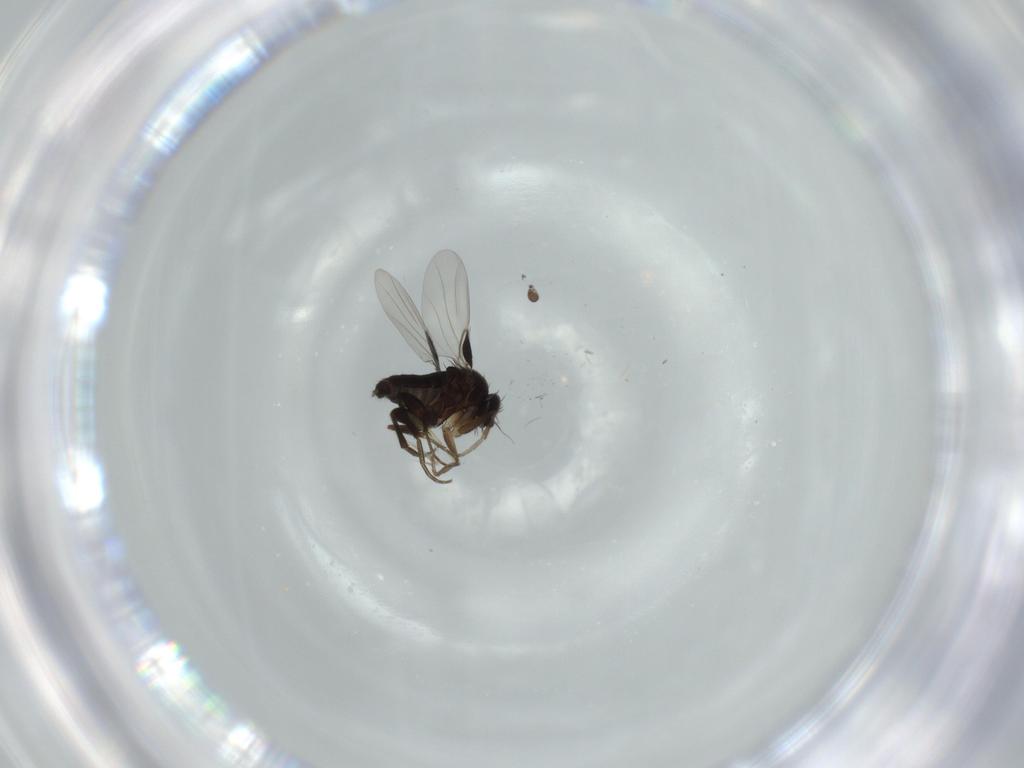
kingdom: Animalia
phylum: Arthropoda
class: Insecta
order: Diptera
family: Phoridae
